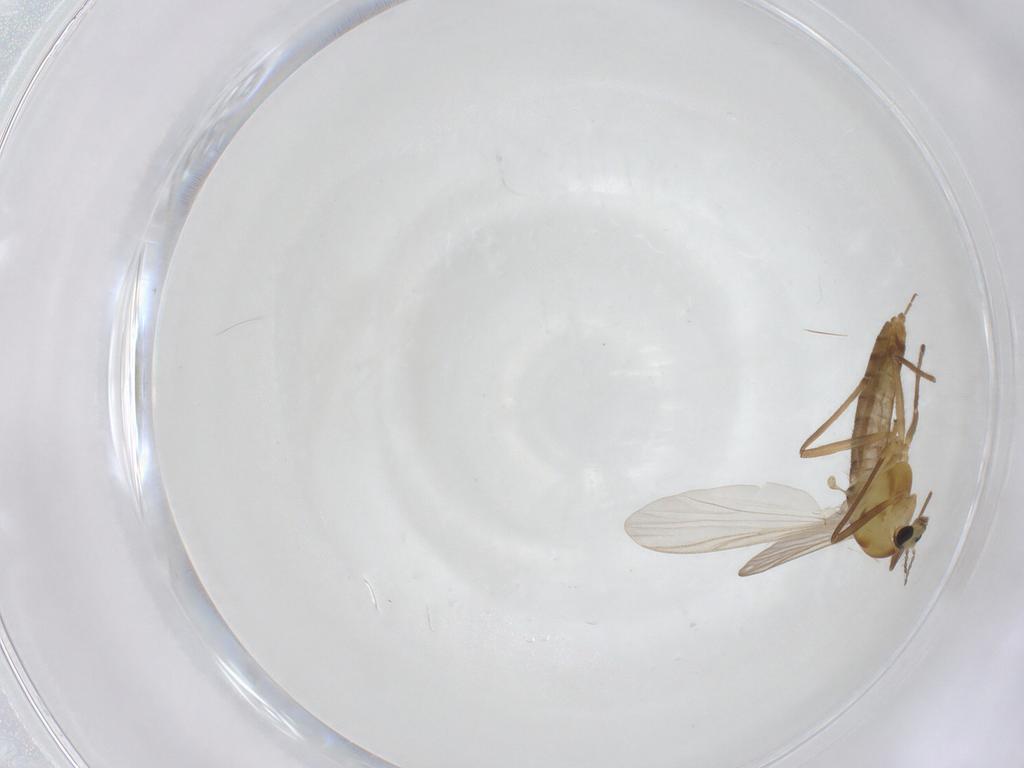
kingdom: Animalia
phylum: Arthropoda
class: Insecta
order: Diptera
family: Chironomidae
